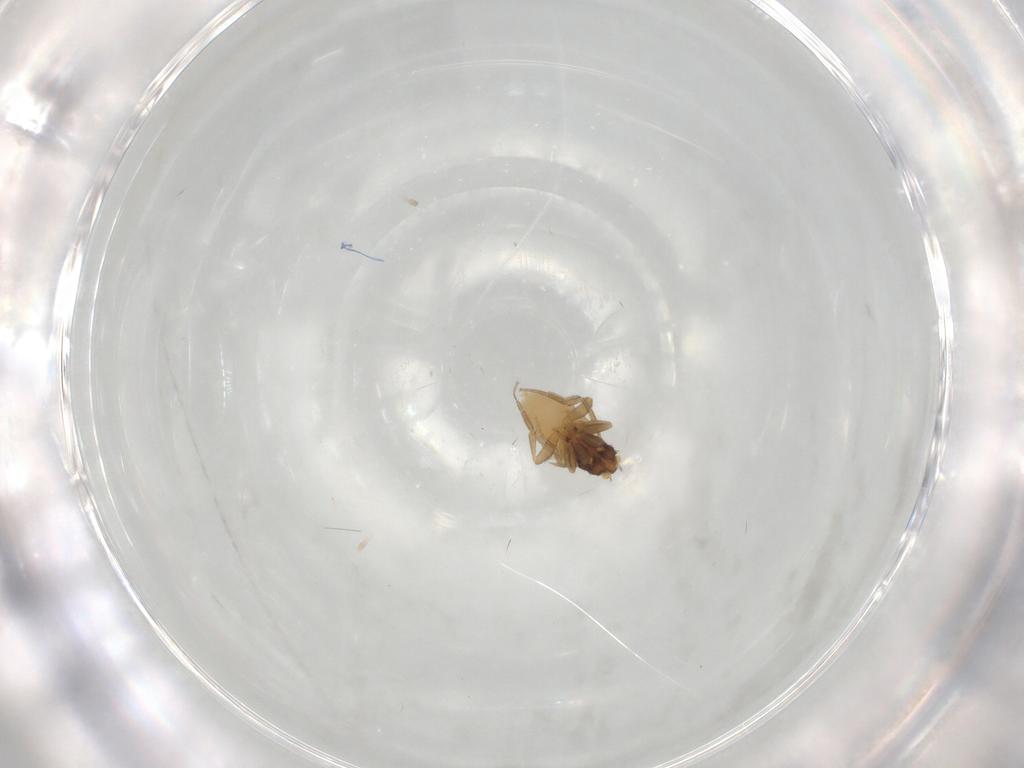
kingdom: Animalia
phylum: Arthropoda
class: Insecta
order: Diptera
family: Phoridae
